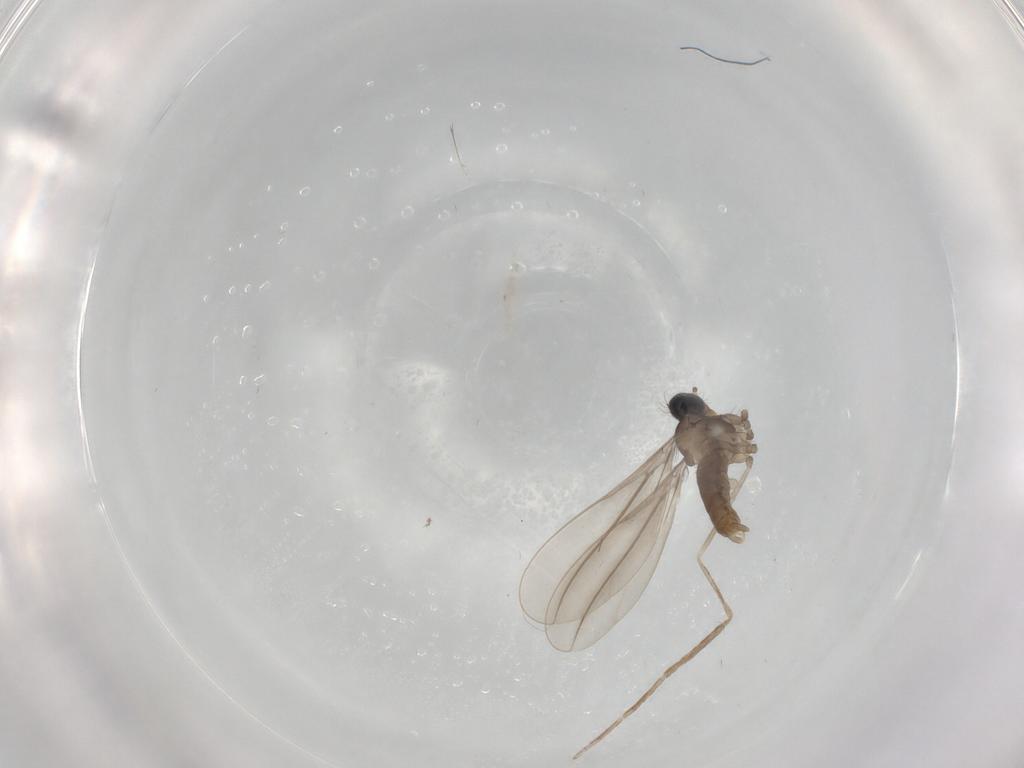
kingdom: Animalia
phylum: Arthropoda
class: Insecta
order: Diptera
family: Cecidomyiidae
